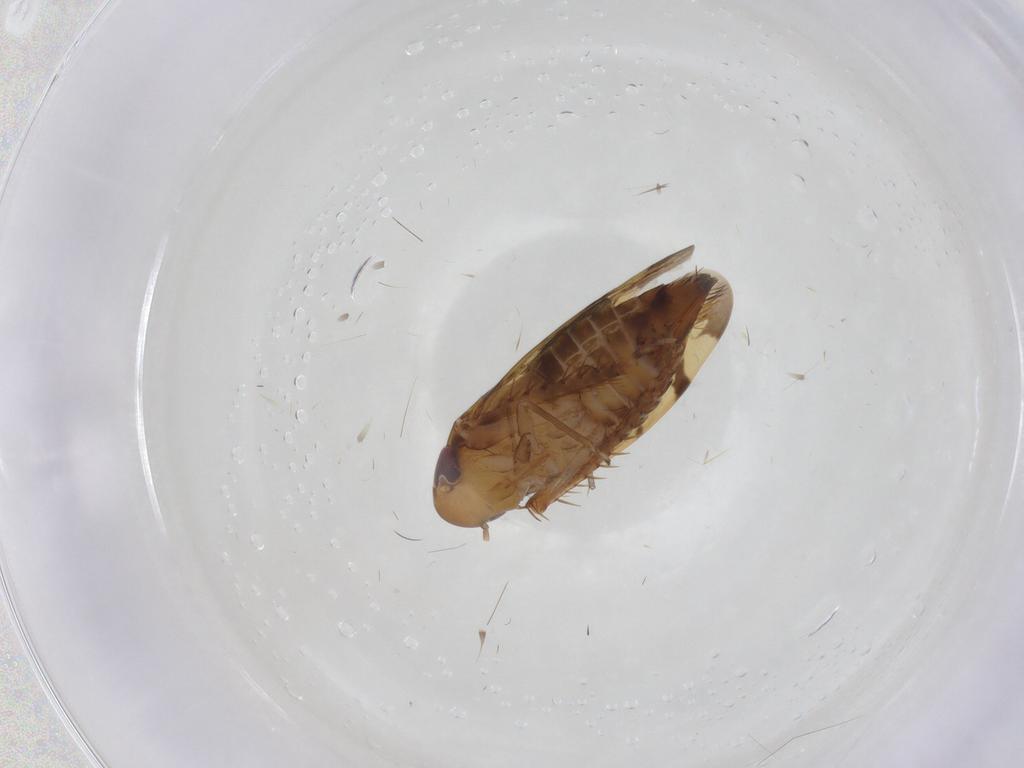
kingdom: Animalia
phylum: Arthropoda
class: Insecta
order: Hemiptera
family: Cicadellidae
